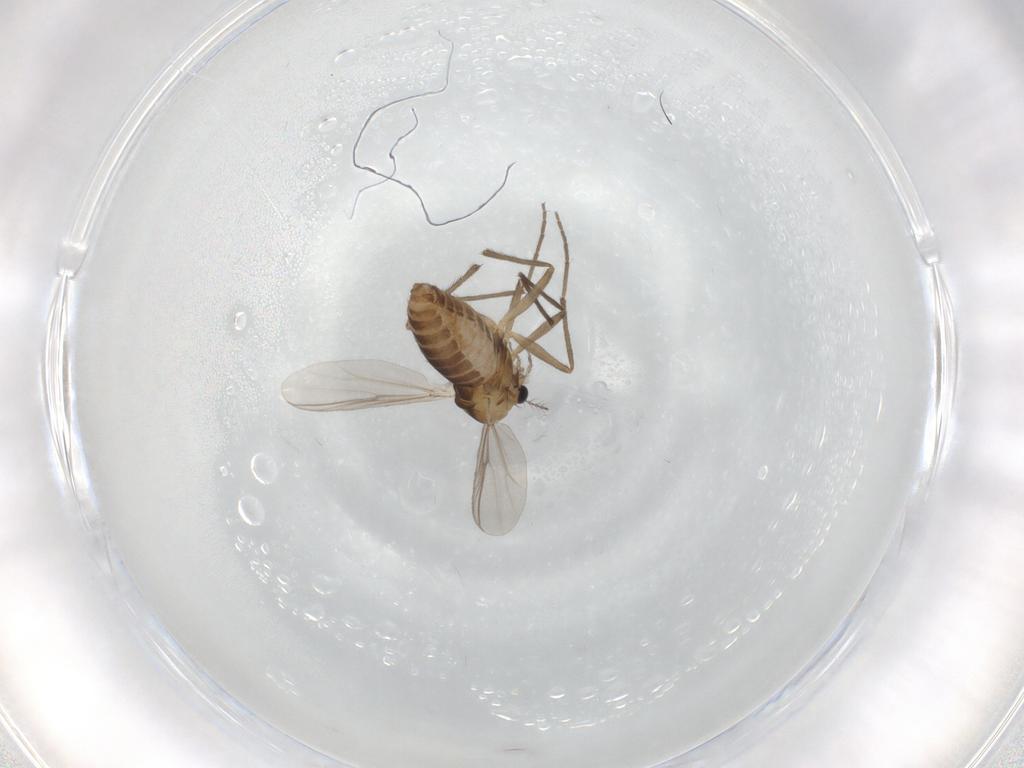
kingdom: Animalia
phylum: Arthropoda
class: Insecta
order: Diptera
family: Chironomidae
